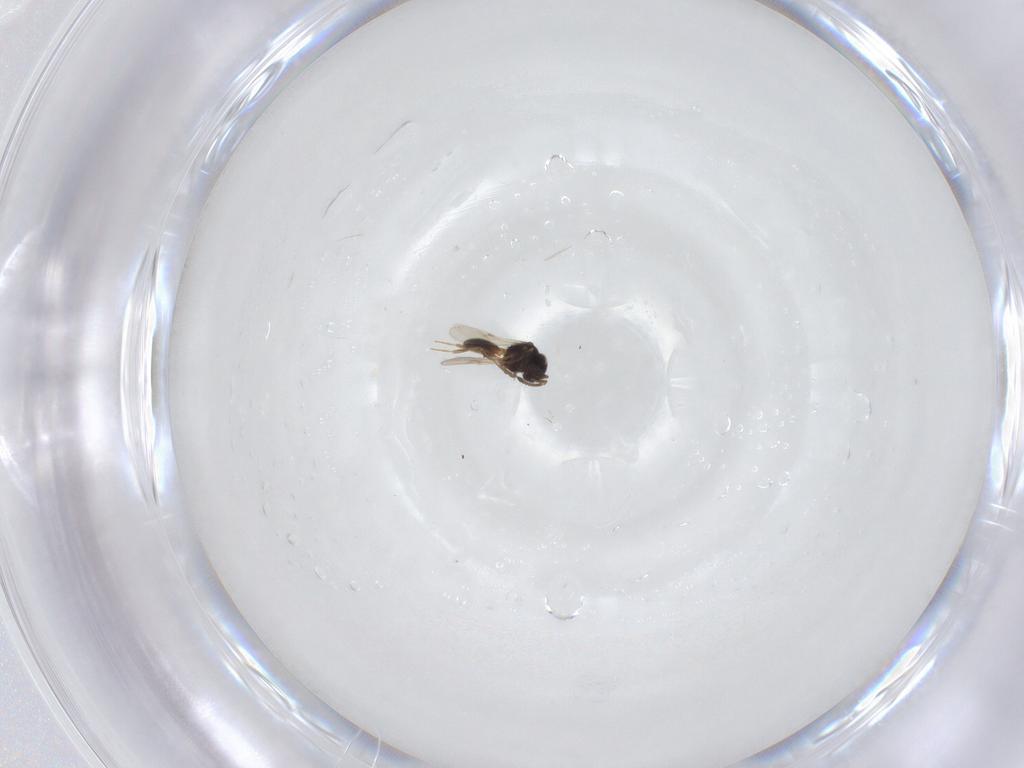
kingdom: Animalia
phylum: Arthropoda
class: Insecta
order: Hymenoptera
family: Scelionidae
